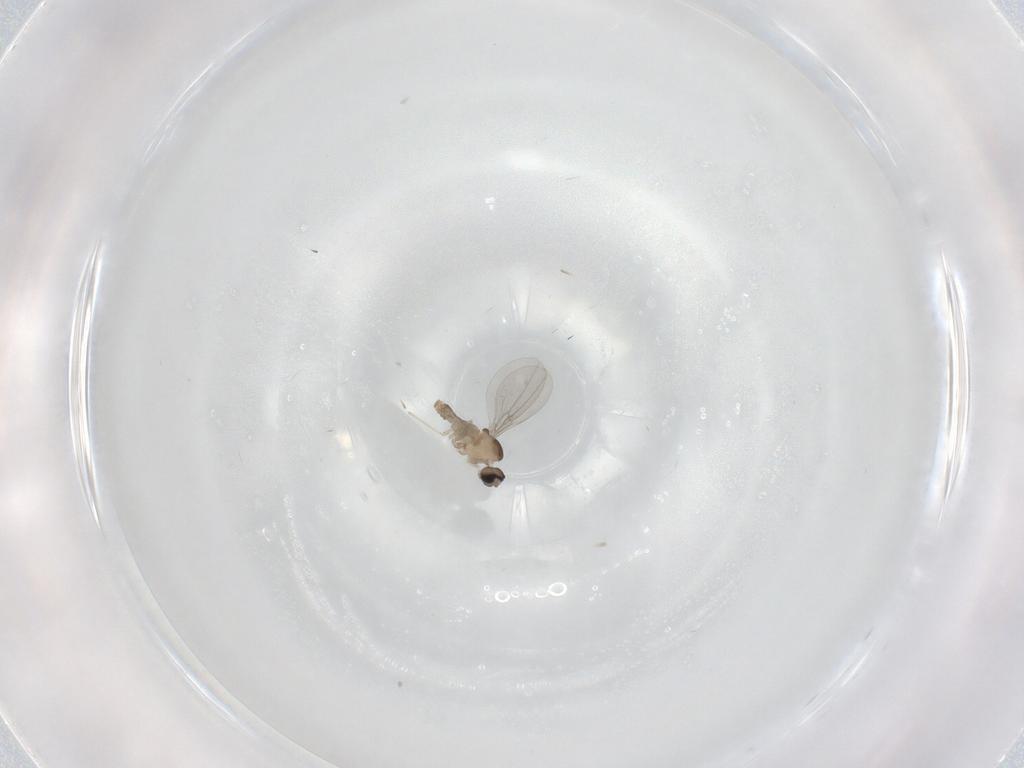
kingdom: Animalia
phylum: Arthropoda
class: Insecta
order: Diptera
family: Cecidomyiidae
